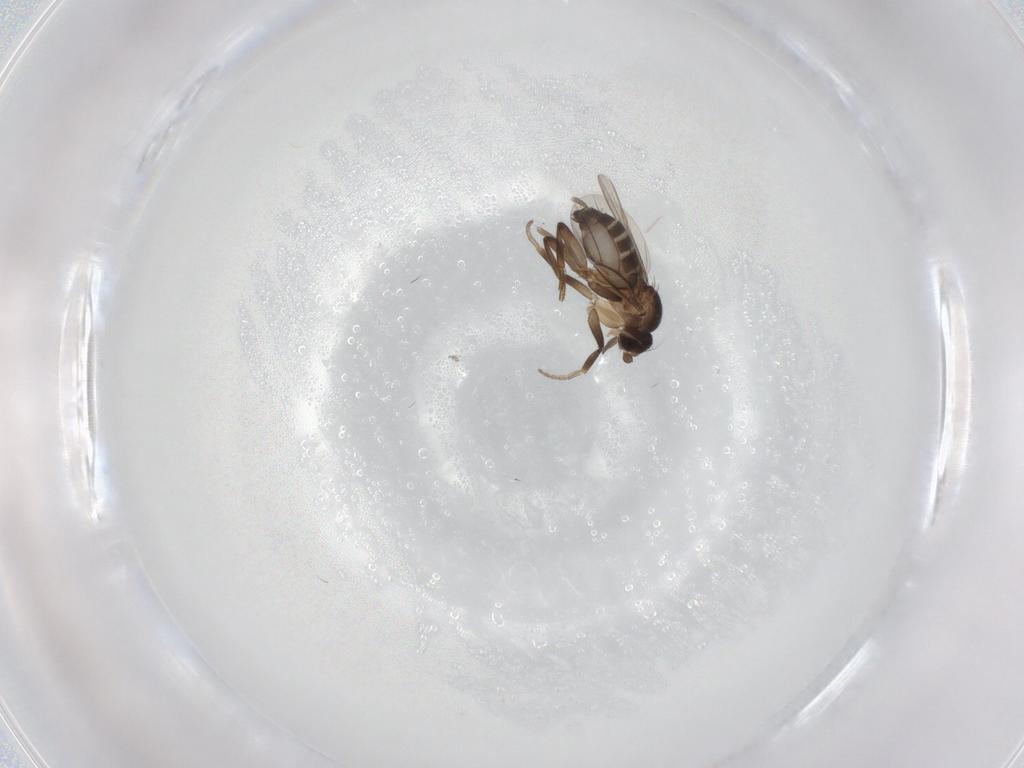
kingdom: Animalia
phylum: Arthropoda
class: Insecta
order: Diptera
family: Phoridae
